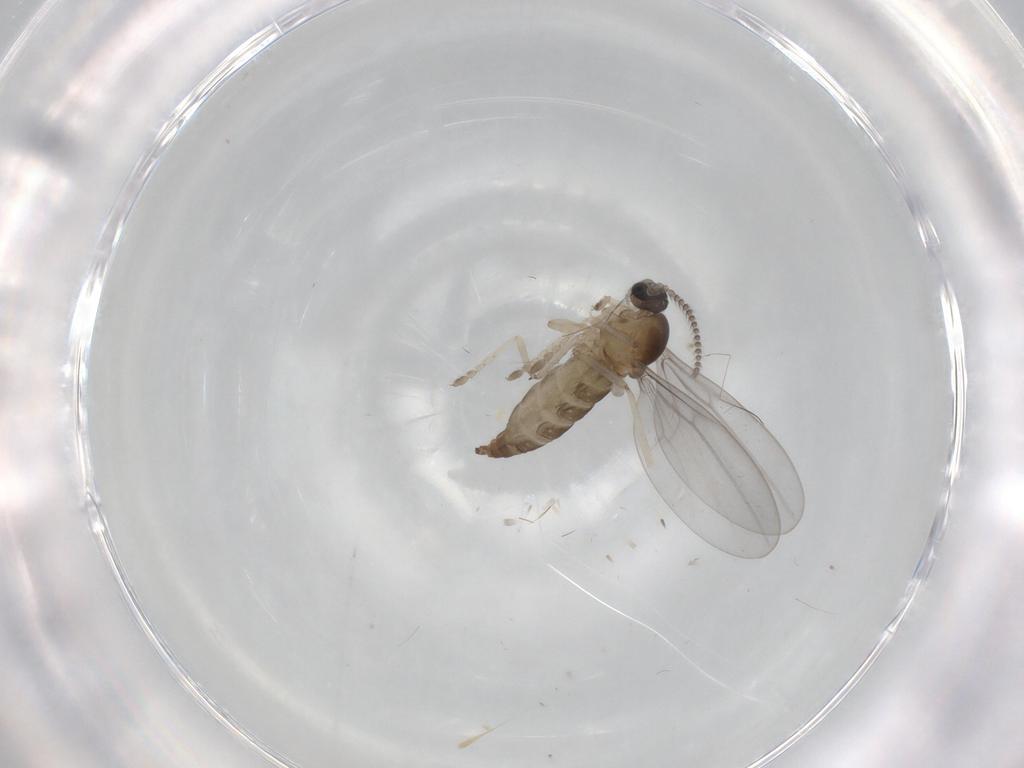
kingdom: Animalia
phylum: Arthropoda
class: Insecta
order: Diptera
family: Cecidomyiidae
